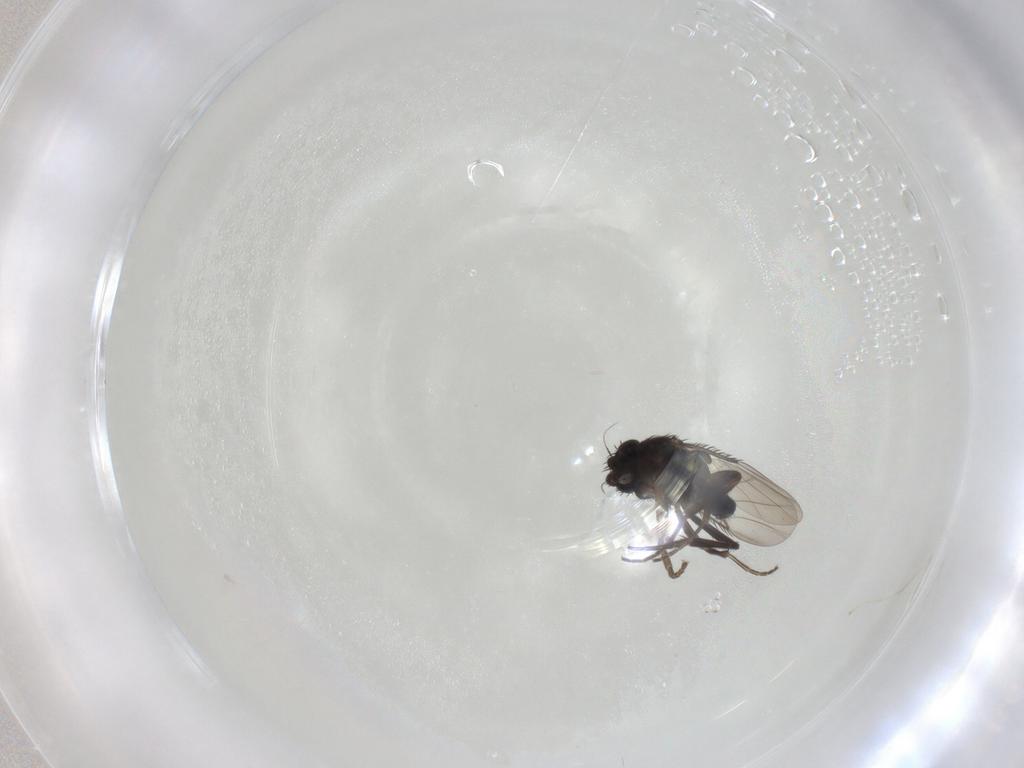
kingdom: Animalia
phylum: Arthropoda
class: Insecta
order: Diptera
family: Phoridae
